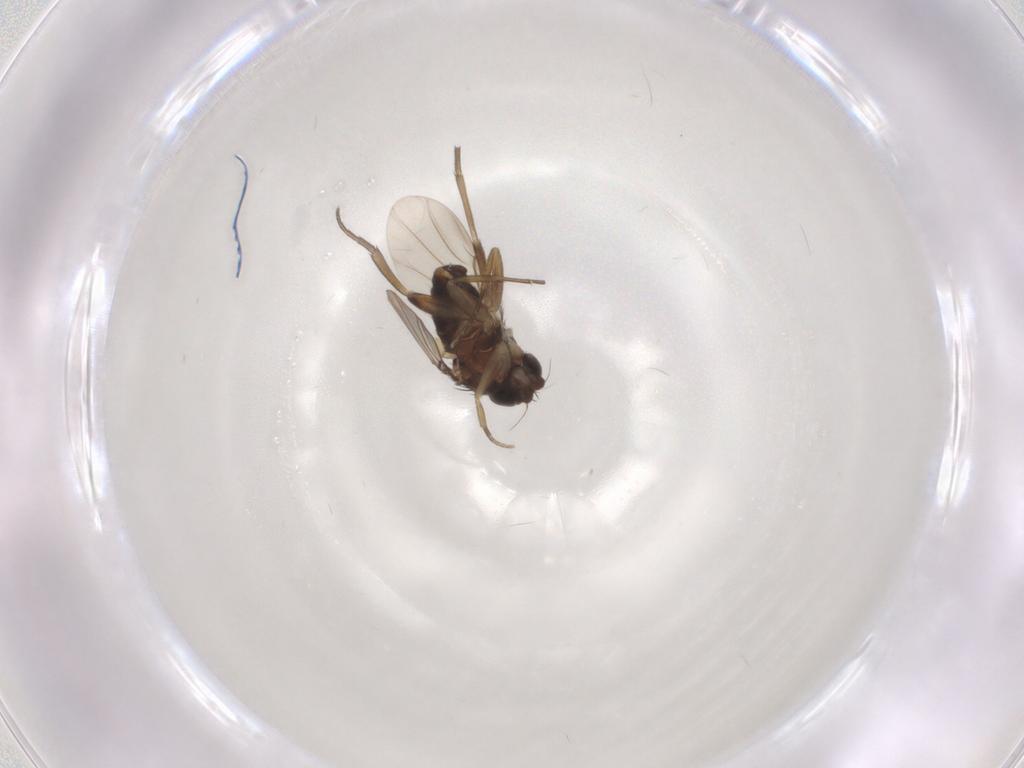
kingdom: Animalia
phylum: Arthropoda
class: Insecta
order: Diptera
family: Phoridae
